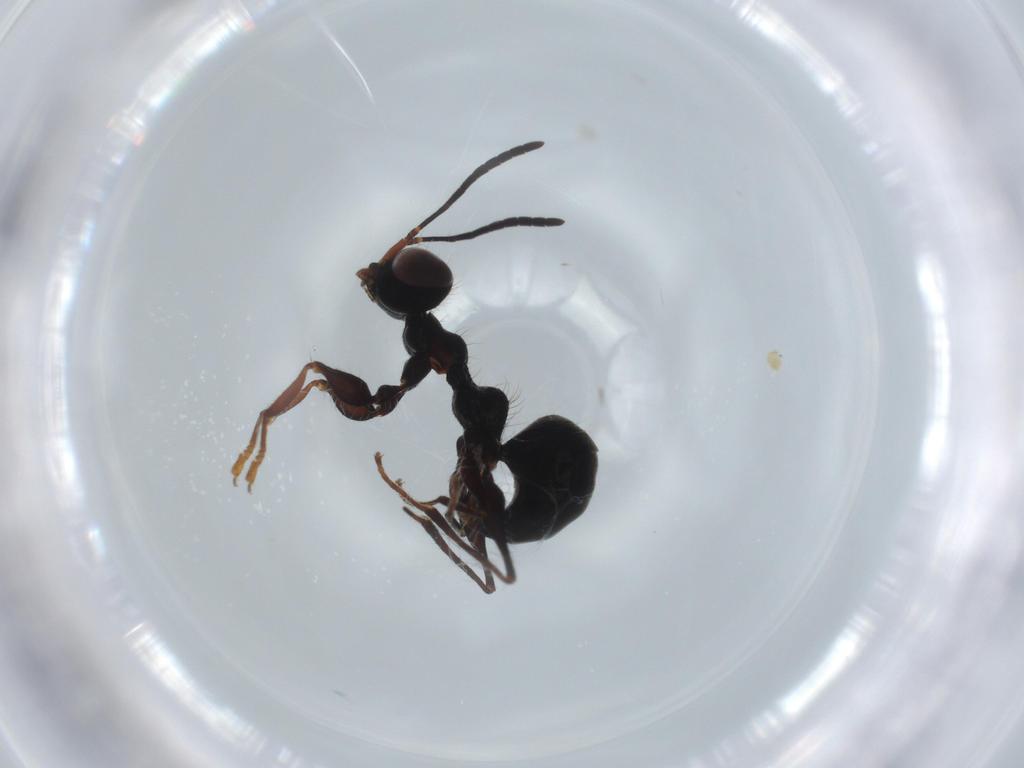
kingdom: Animalia
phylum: Arthropoda
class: Insecta
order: Hymenoptera
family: Dryinidae
